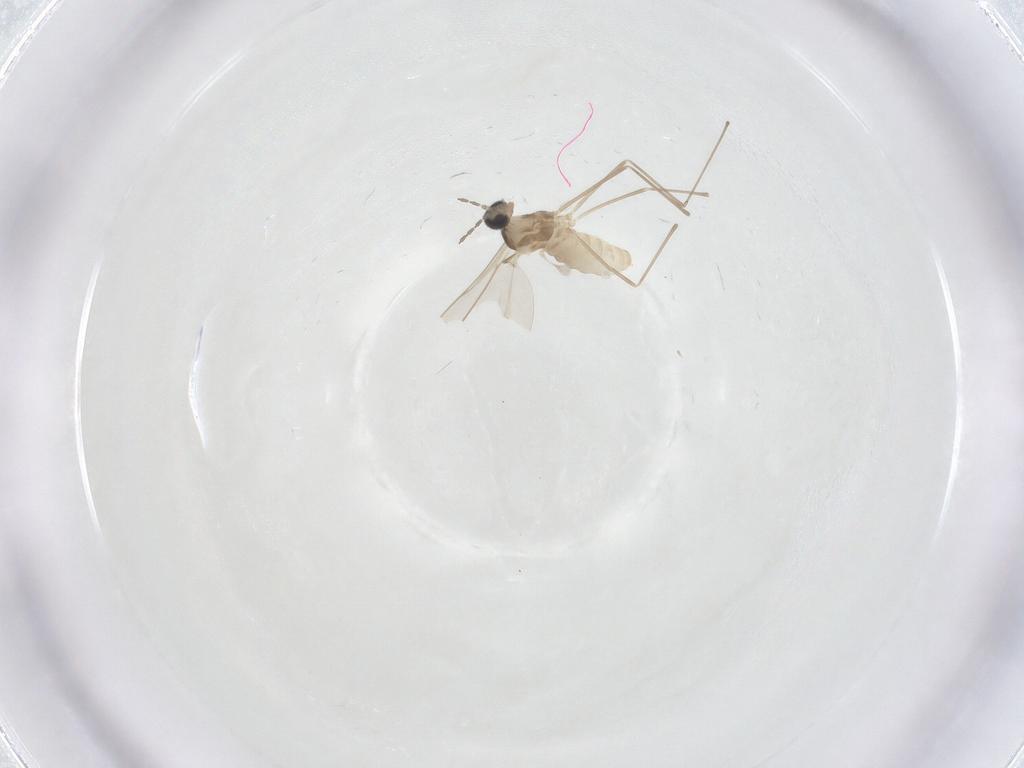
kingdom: Animalia
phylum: Arthropoda
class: Insecta
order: Diptera
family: Cecidomyiidae
